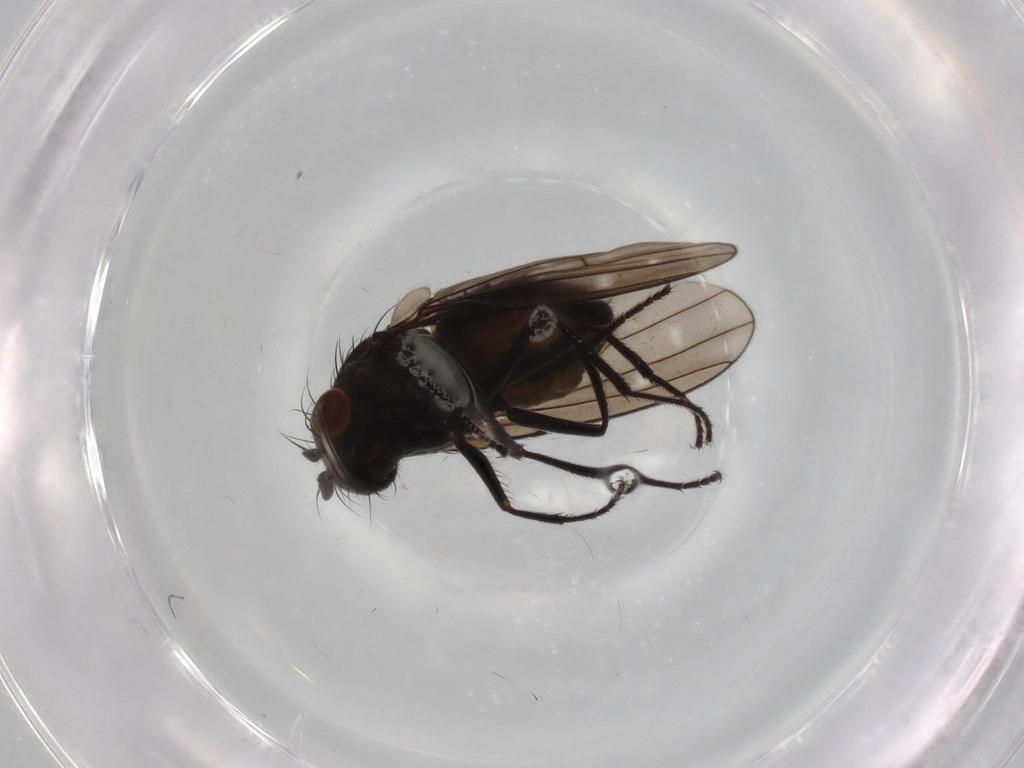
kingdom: Animalia
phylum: Arthropoda
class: Insecta
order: Diptera
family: Ephydridae
